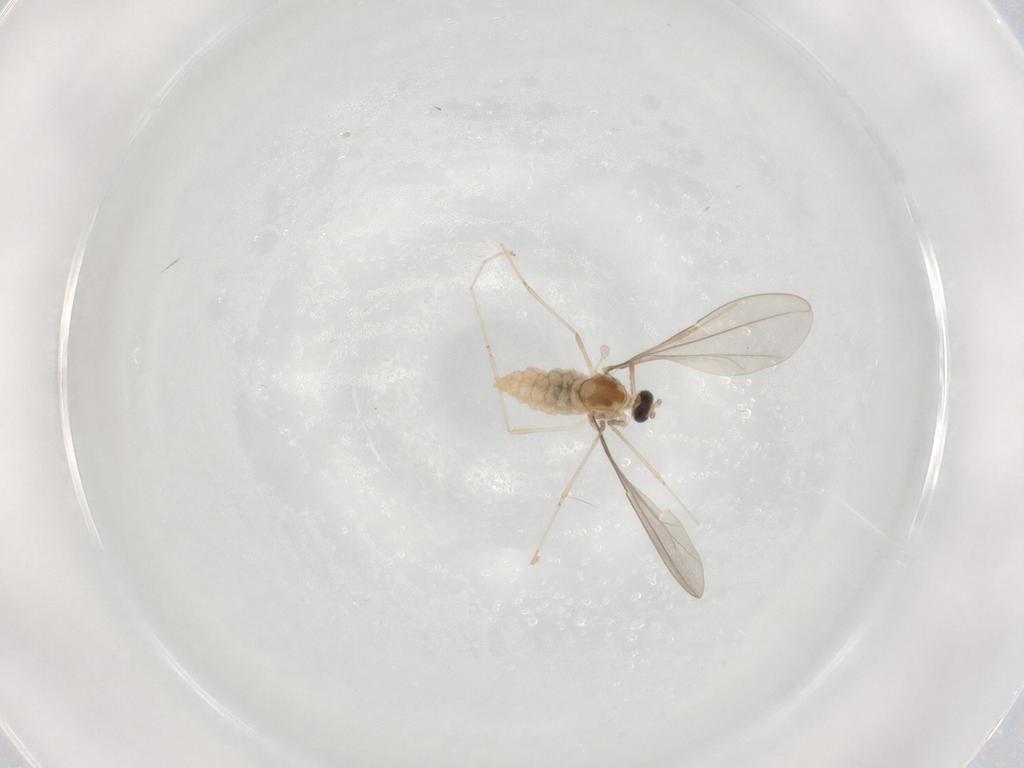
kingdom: Animalia
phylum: Arthropoda
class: Insecta
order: Diptera
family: Cecidomyiidae
